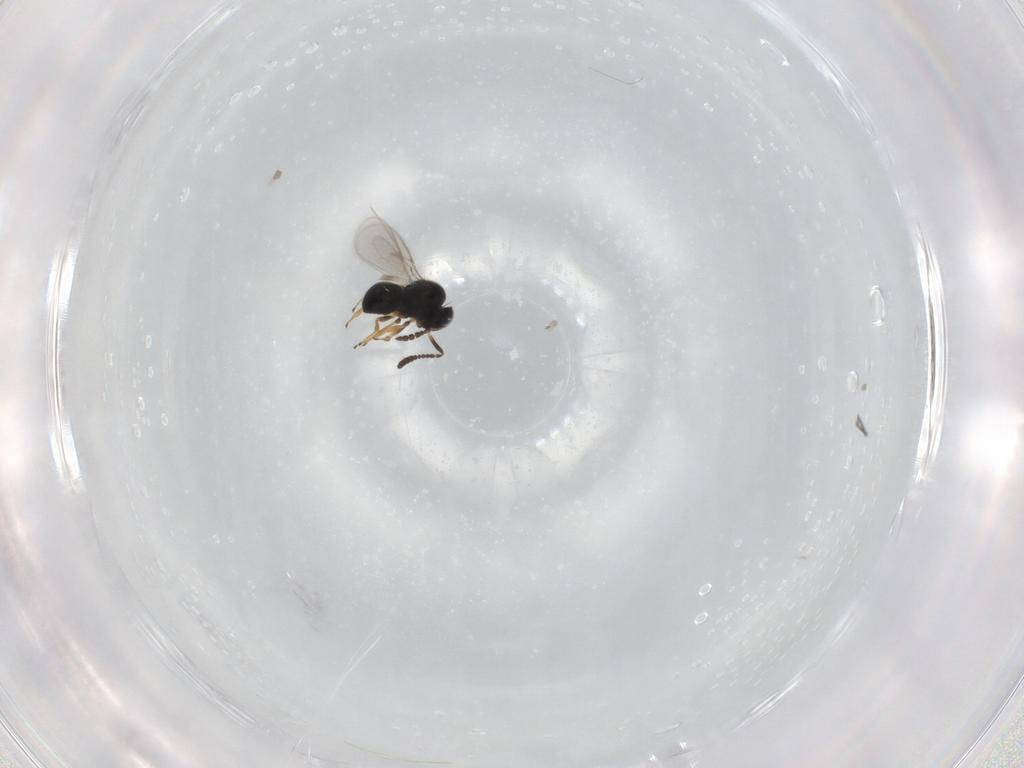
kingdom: Animalia
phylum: Arthropoda
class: Insecta
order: Hymenoptera
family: Scelionidae
